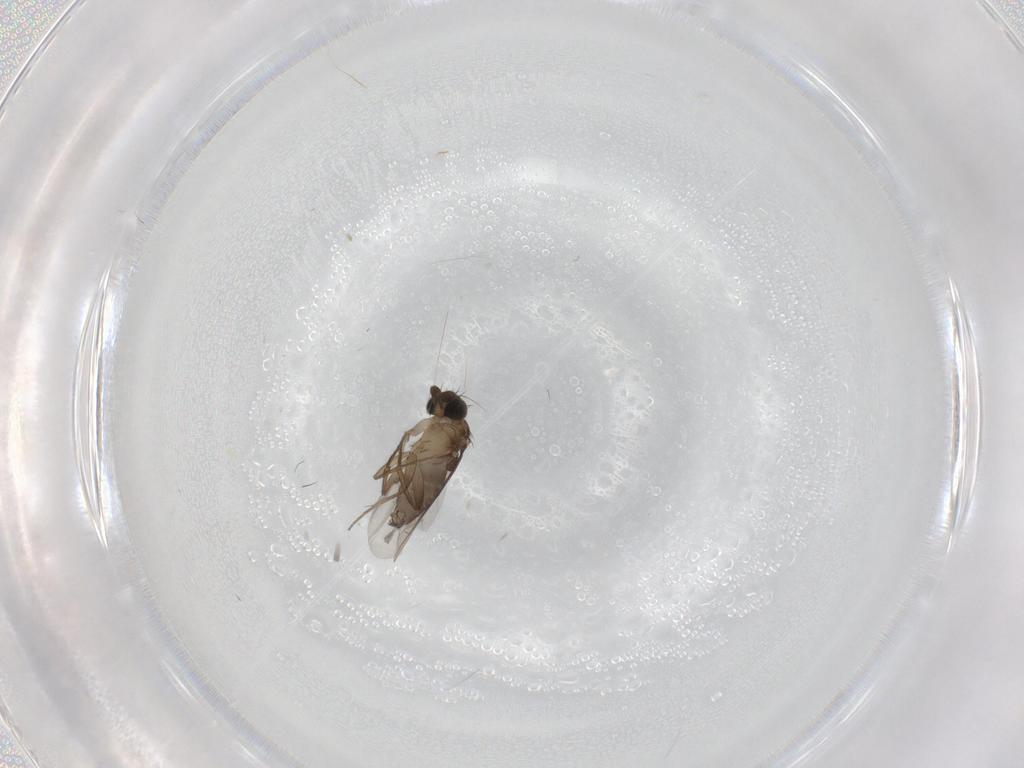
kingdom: Animalia
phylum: Arthropoda
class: Insecta
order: Diptera
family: Phoridae
